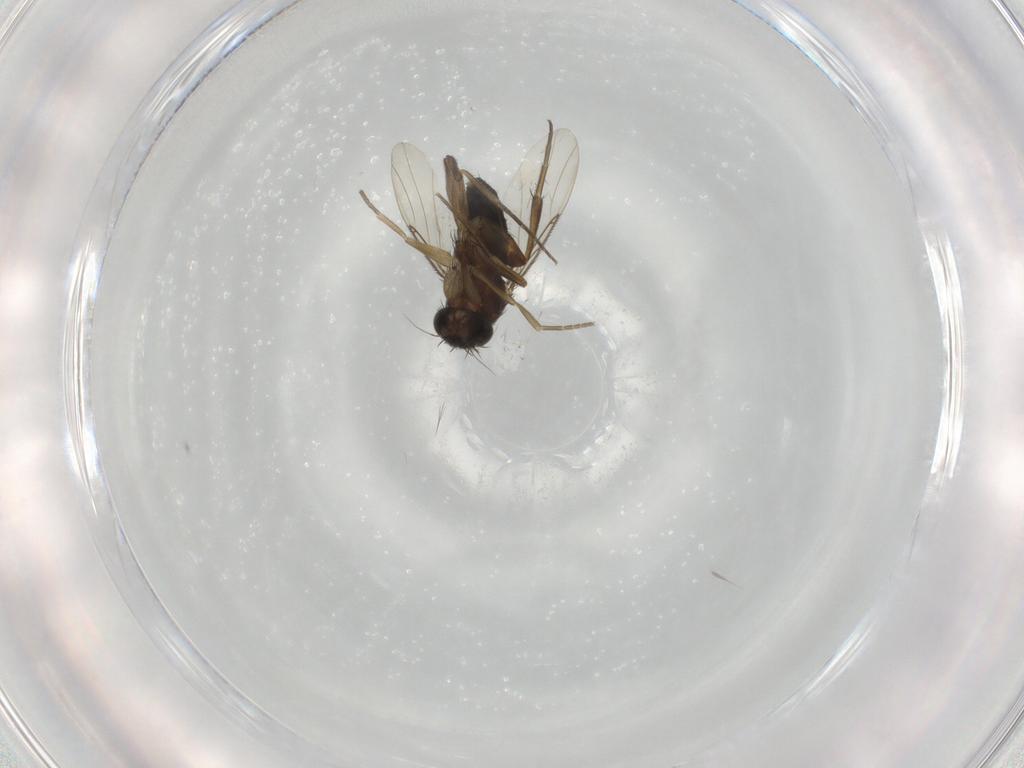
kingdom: Animalia
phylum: Arthropoda
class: Insecta
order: Diptera
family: Phoridae
